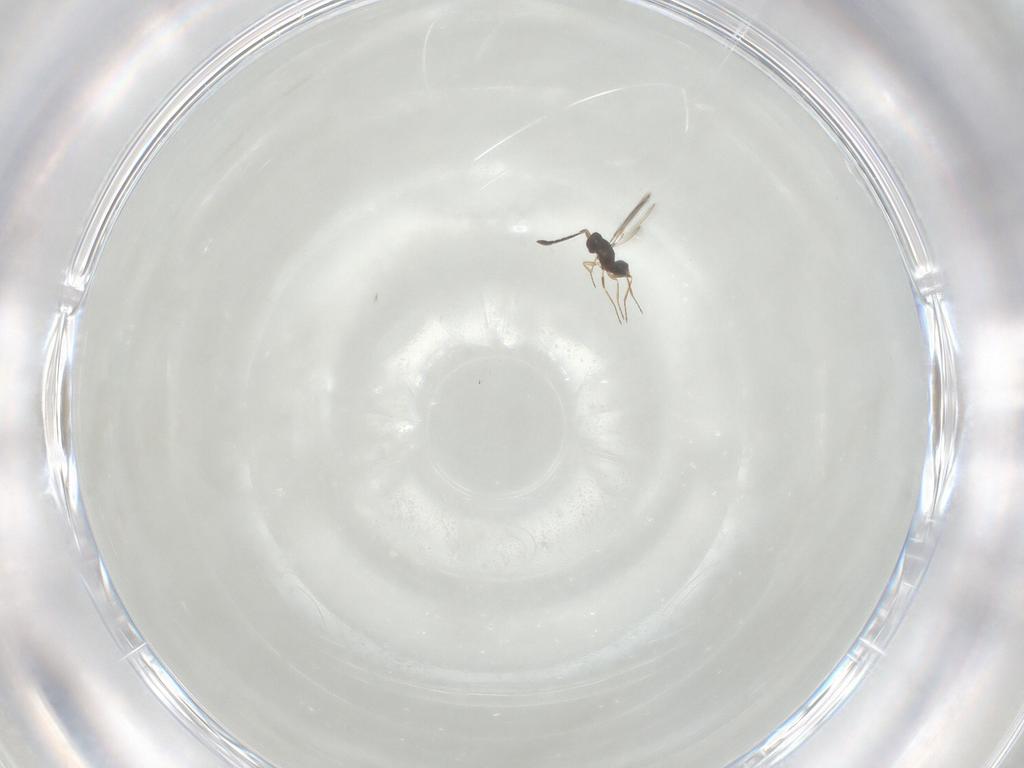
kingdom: Animalia
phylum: Arthropoda
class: Insecta
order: Hymenoptera
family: Mymaridae
